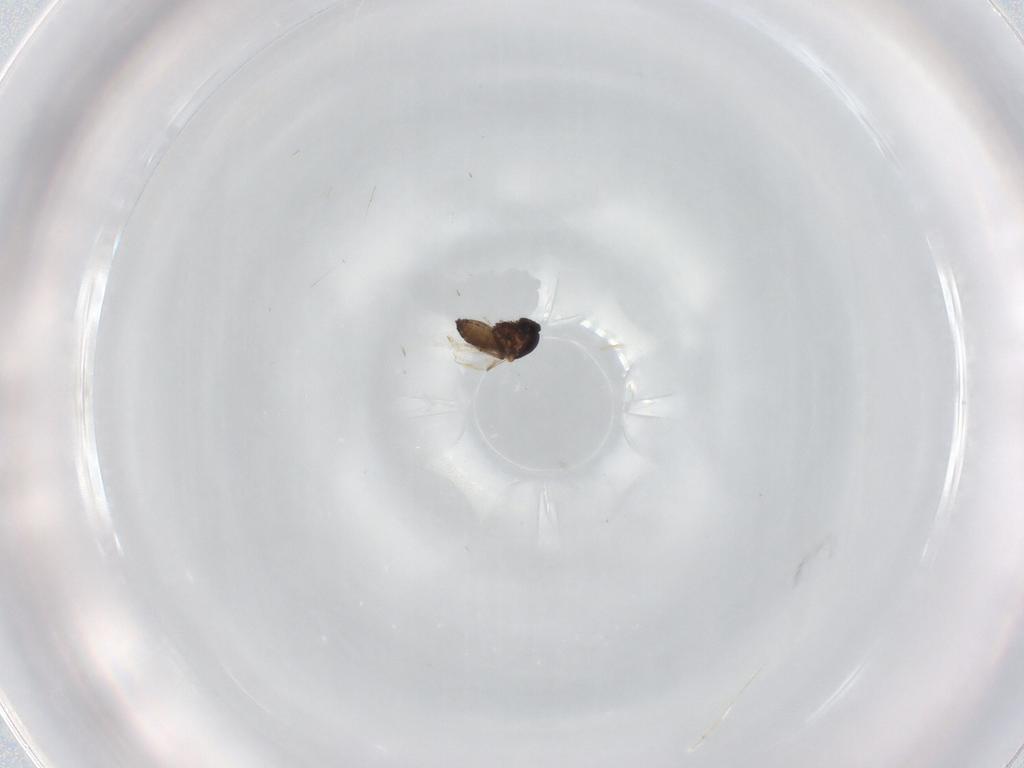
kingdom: Animalia
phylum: Arthropoda
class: Insecta
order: Diptera
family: Ceratopogonidae
